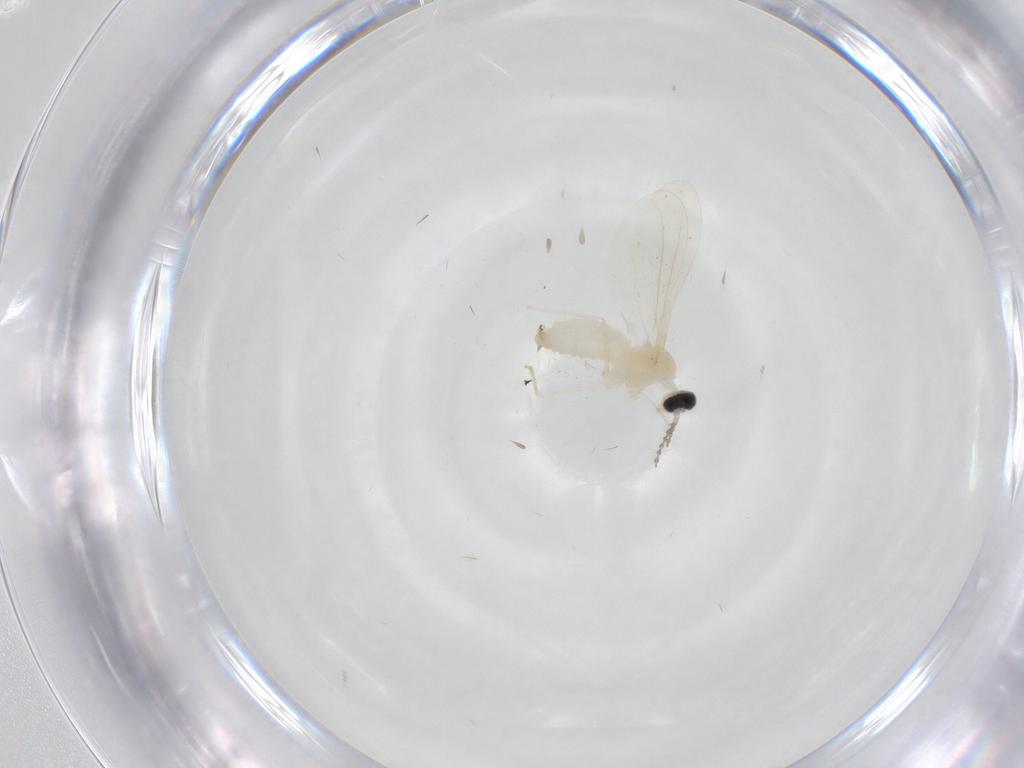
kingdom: Animalia
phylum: Arthropoda
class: Insecta
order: Diptera
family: Cecidomyiidae
